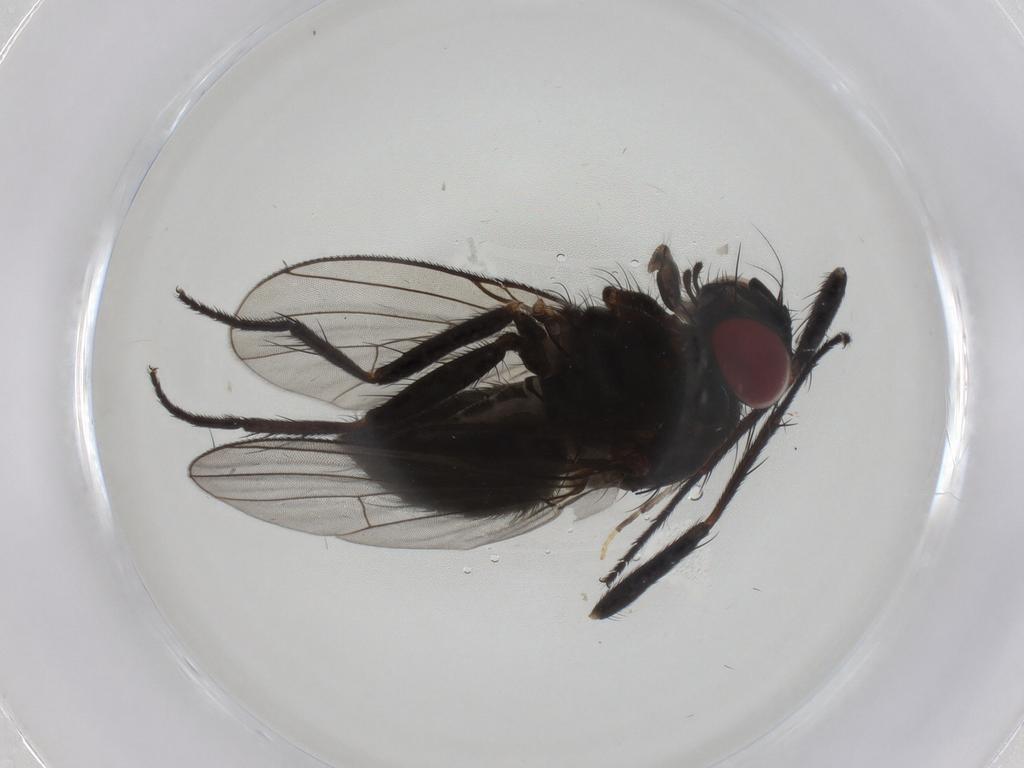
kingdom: Animalia
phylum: Arthropoda
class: Insecta
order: Diptera
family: Muscidae
